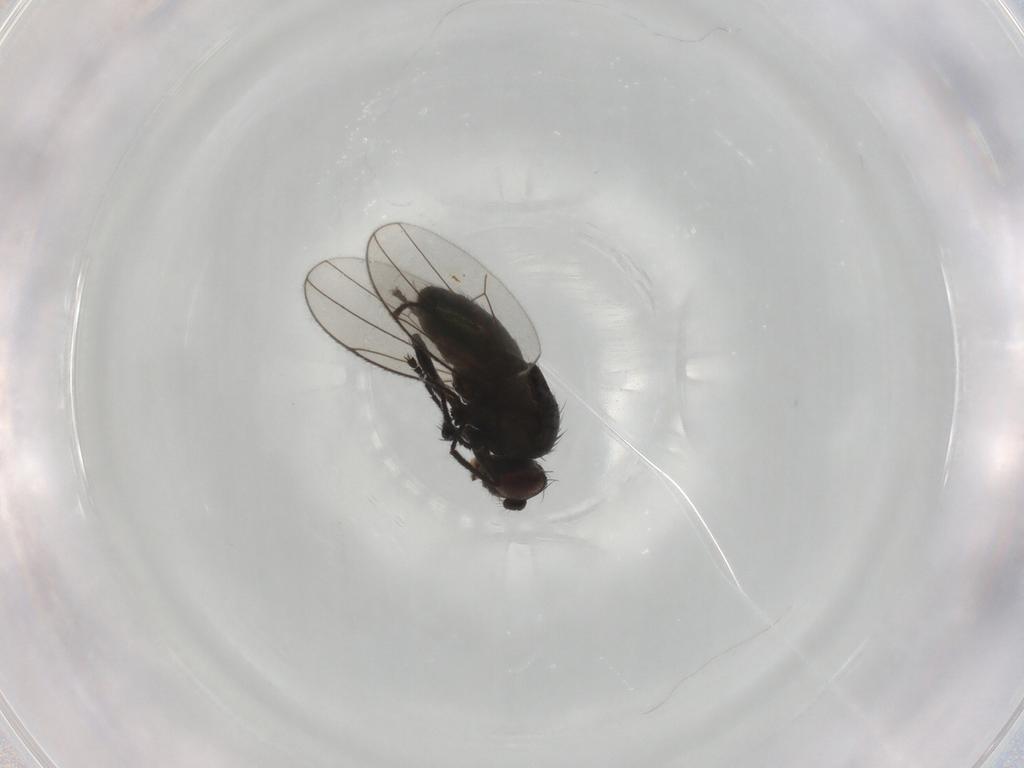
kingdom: Animalia
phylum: Arthropoda
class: Insecta
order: Diptera
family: Ephydridae
